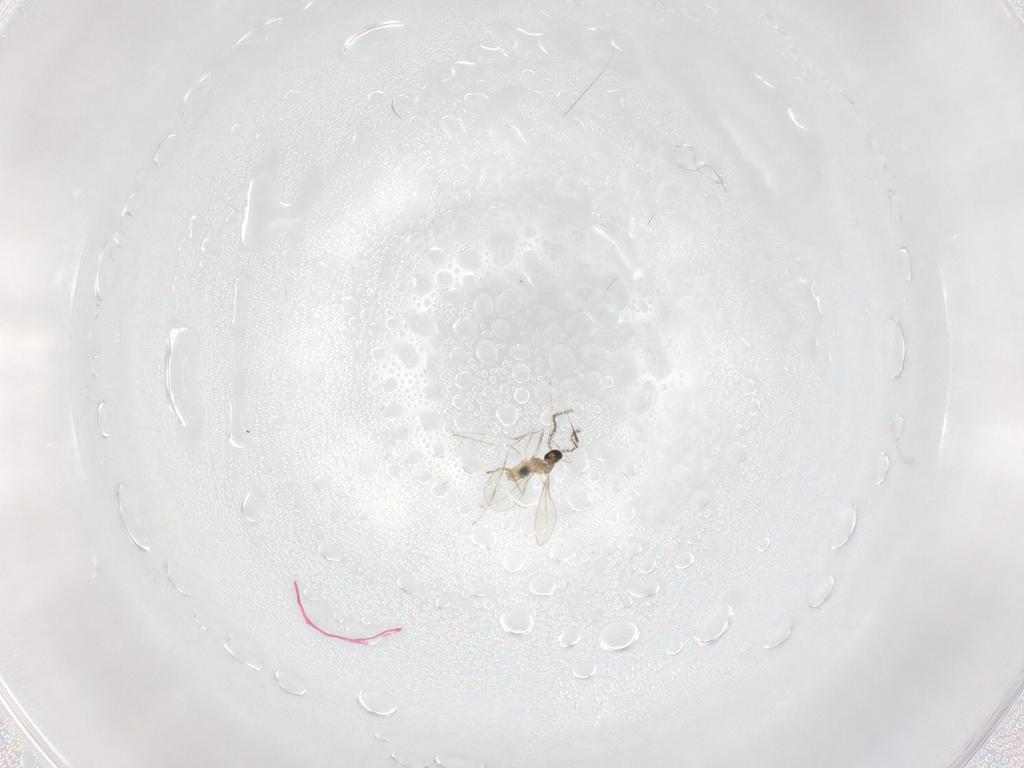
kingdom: Animalia
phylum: Arthropoda
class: Insecta
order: Diptera
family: Cecidomyiidae
